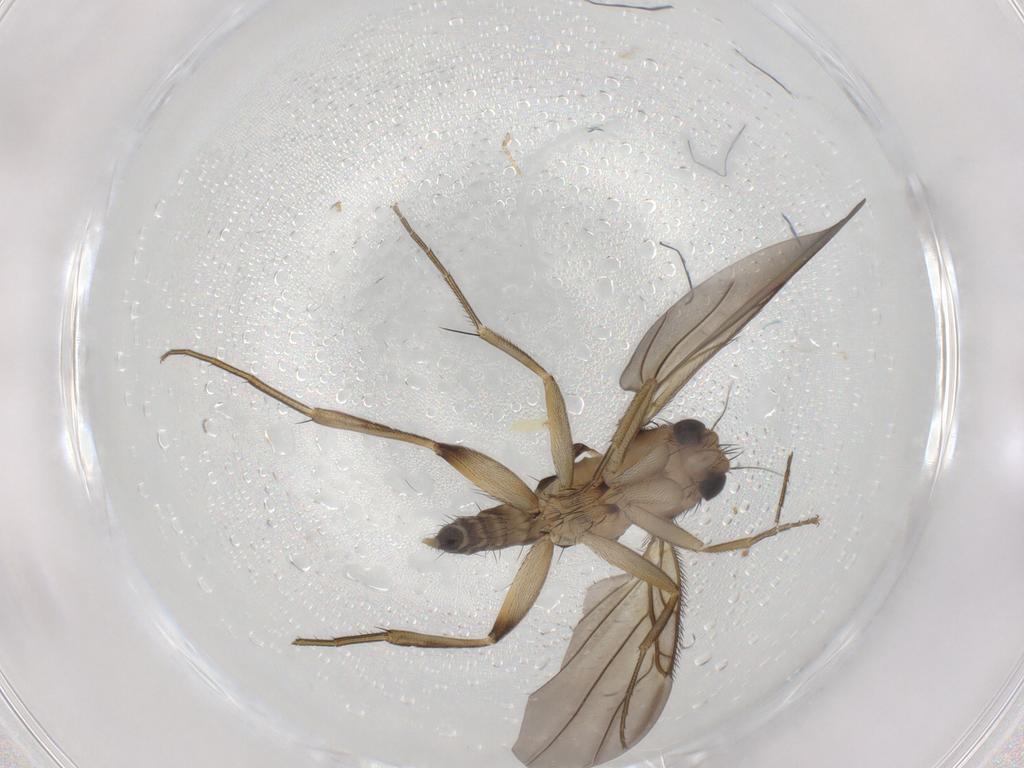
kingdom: Animalia
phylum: Arthropoda
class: Insecta
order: Diptera
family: Phoridae
